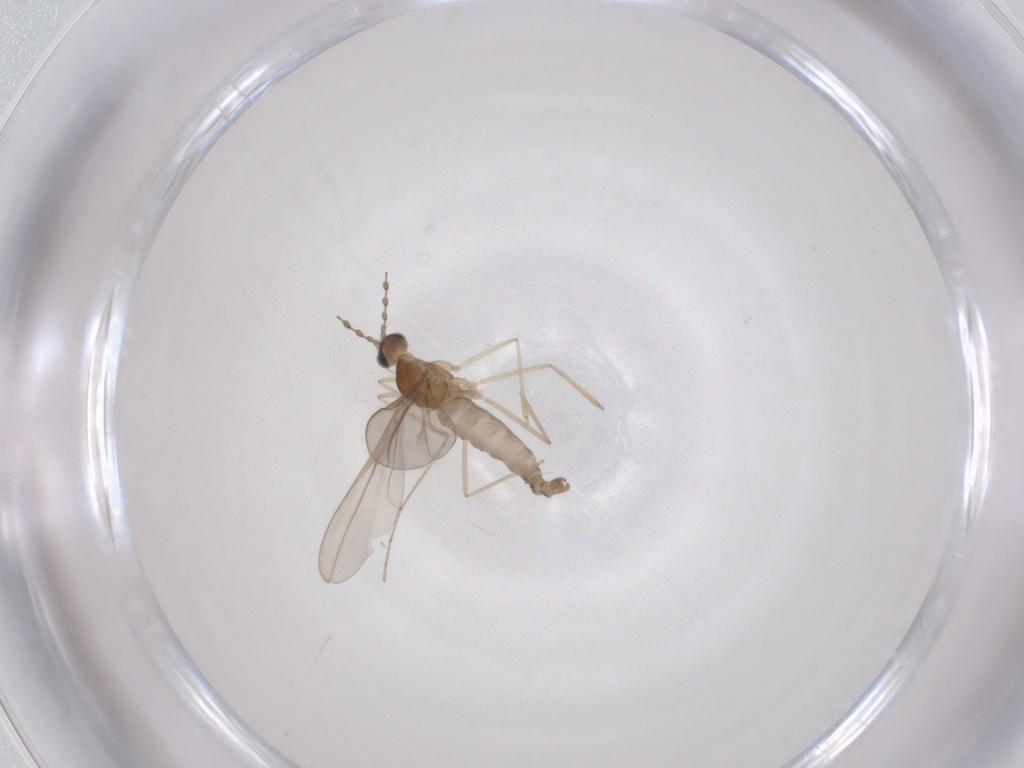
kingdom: Animalia
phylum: Arthropoda
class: Insecta
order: Diptera
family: Cecidomyiidae
